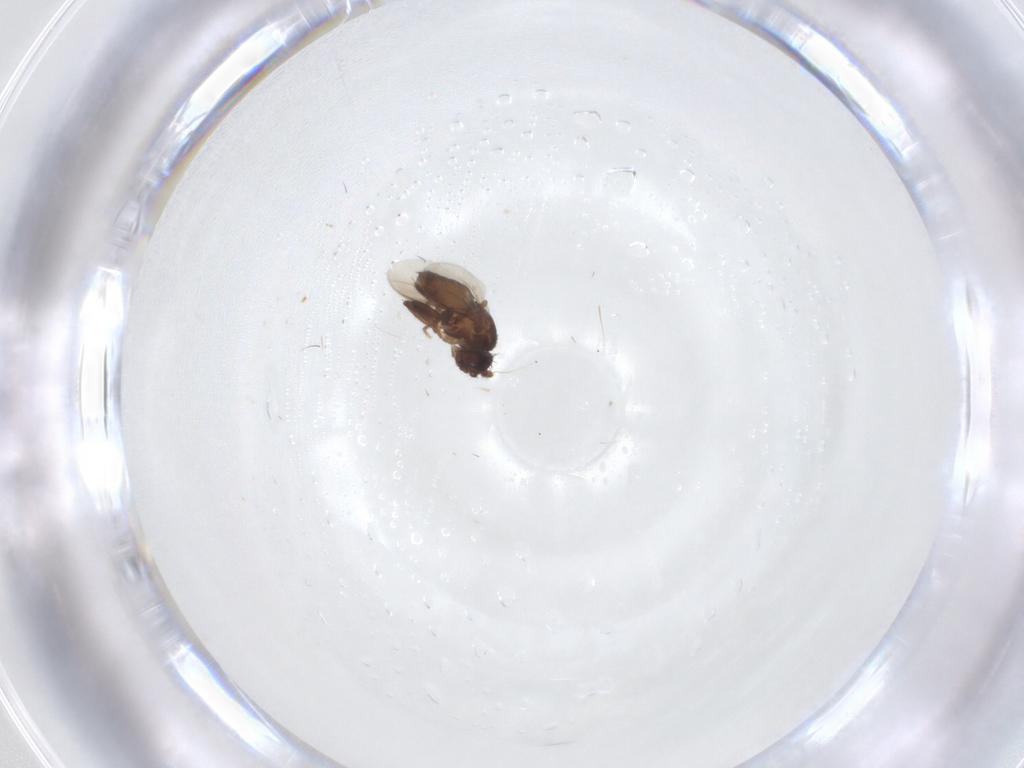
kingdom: Animalia
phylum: Arthropoda
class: Insecta
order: Diptera
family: Sphaeroceridae
